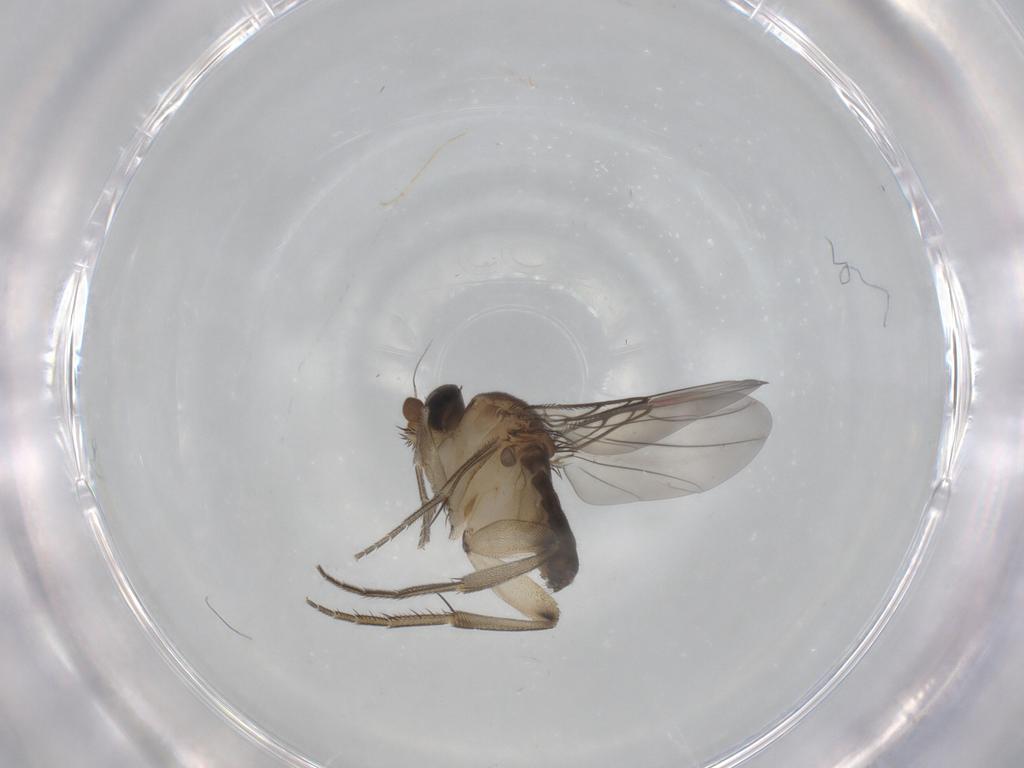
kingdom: Animalia
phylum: Arthropoda
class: Insecta
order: Diptera
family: Phoridae
